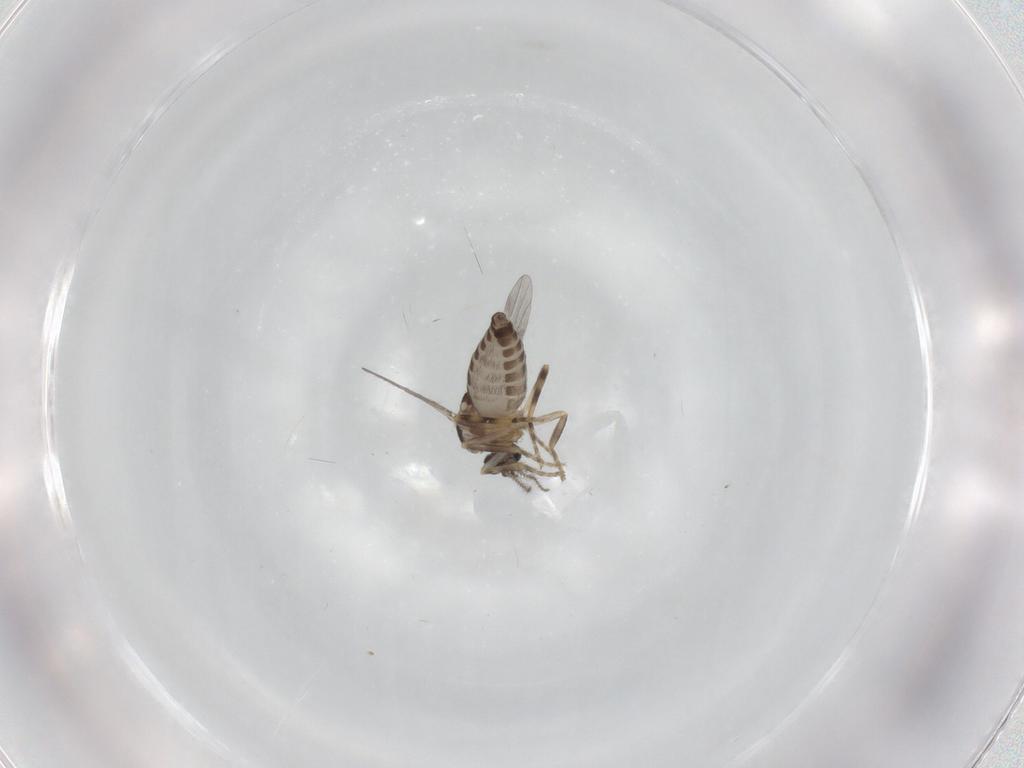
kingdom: Animalia
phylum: Arthropoda
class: Insecta
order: Diptera
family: Ceratopogonidae
